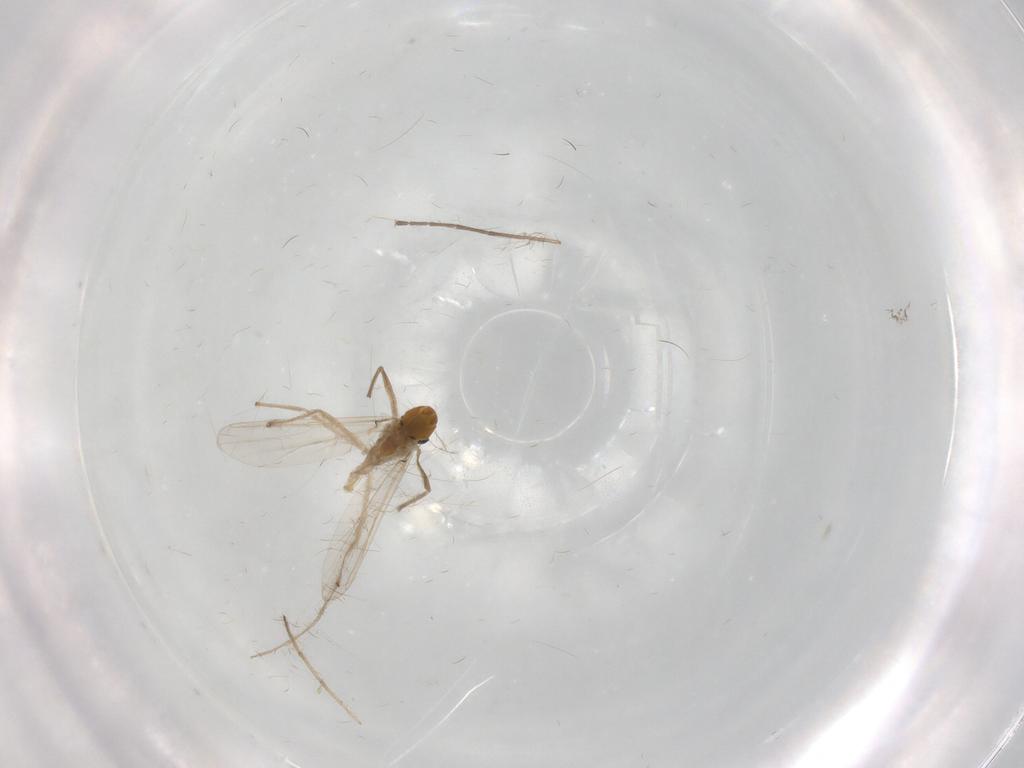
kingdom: Animalia
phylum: Arthropoda
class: Insecta
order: Diptera
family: Chironomidae
